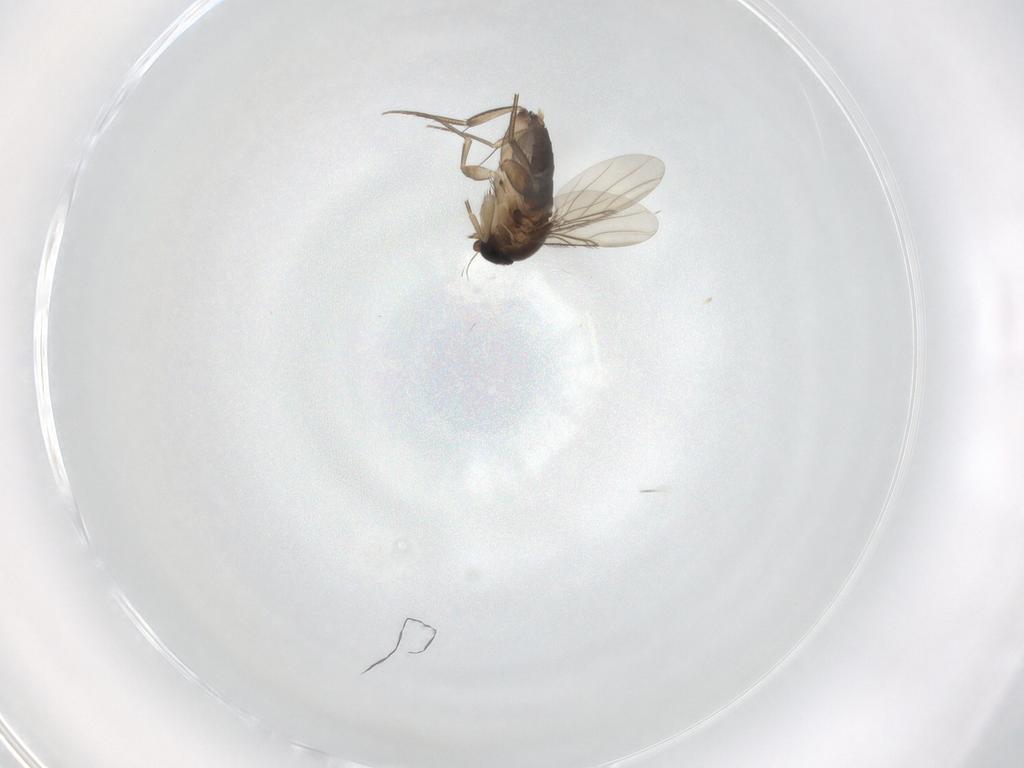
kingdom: Animalia
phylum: Arthropoda
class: Insecta
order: Diptera
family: Phoridae
